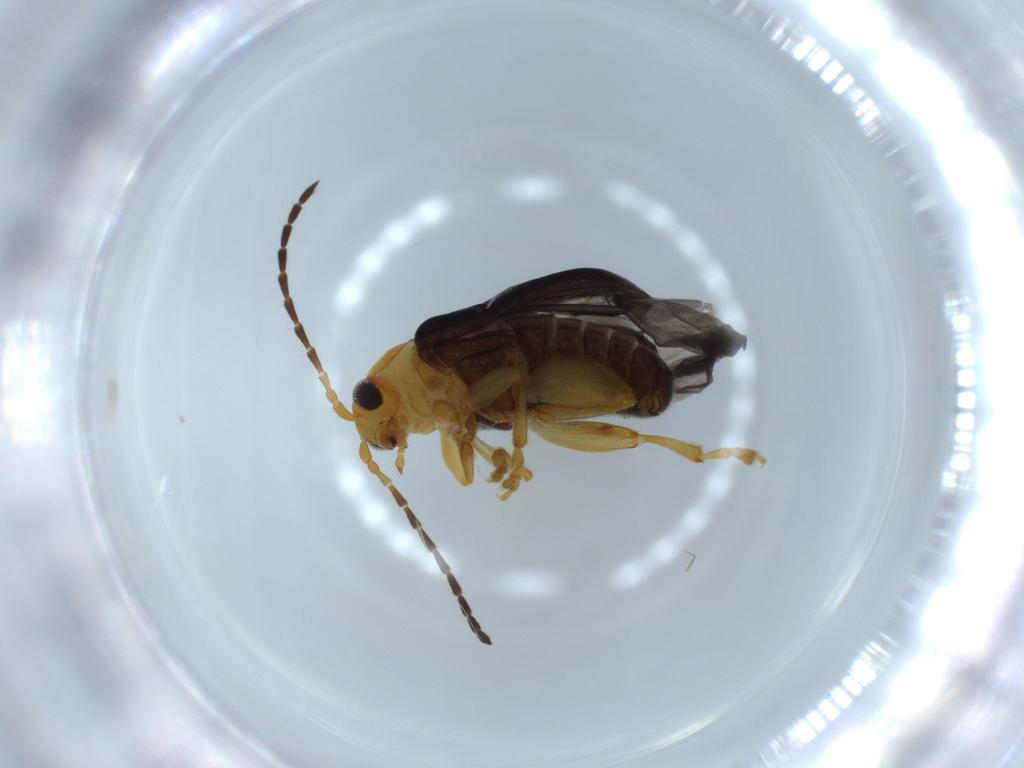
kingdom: Animalia
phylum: Arthropoda
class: Insecta
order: Coleoptera
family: Chrysomelidae
